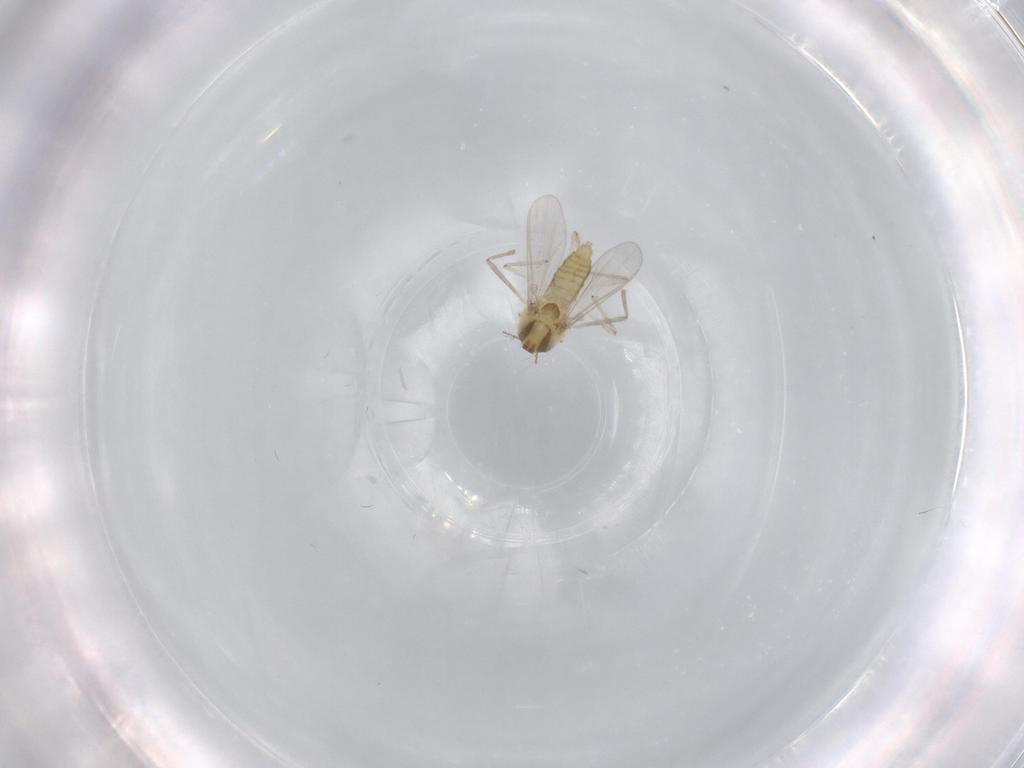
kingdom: Animalia
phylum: Arthropoda
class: Insecta
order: Diptera
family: Chironomidae
